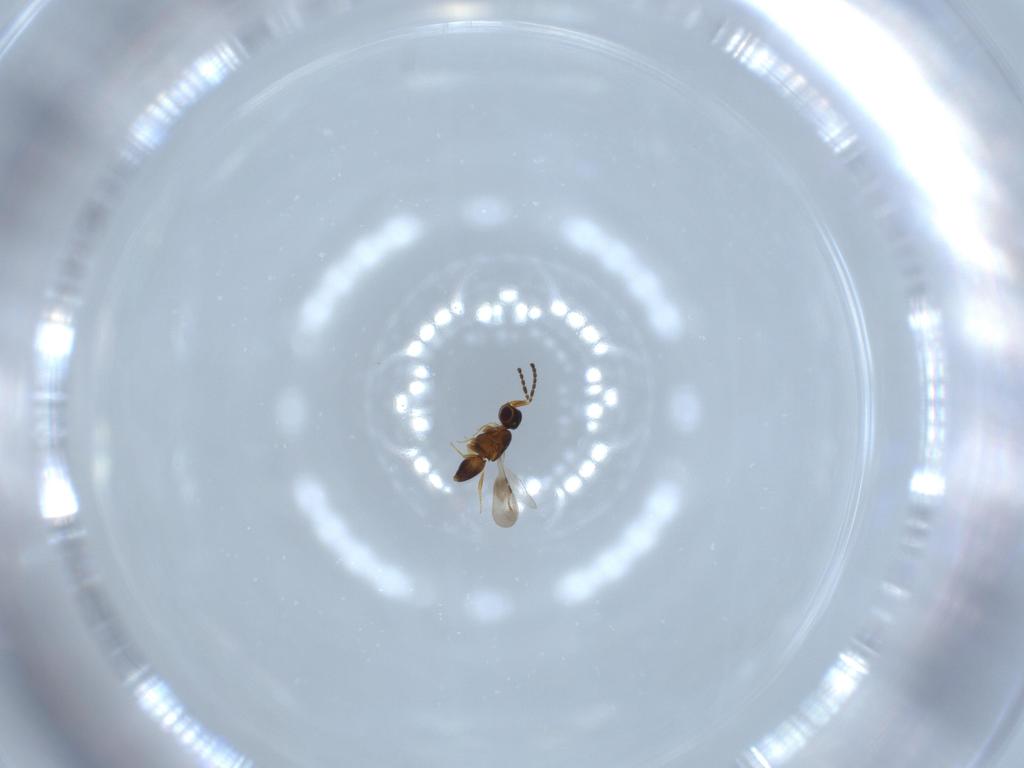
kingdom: Animalia
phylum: Arthropoda
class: Insecta
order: Hymenoptera
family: Ceraphronidae
